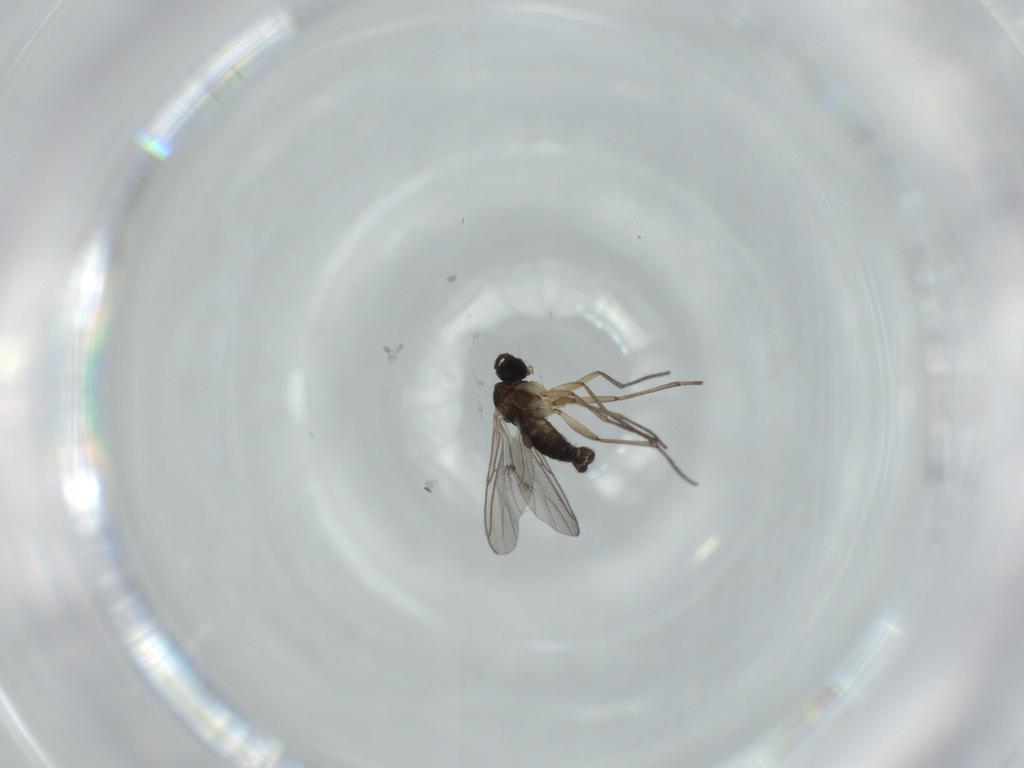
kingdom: Animalia
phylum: Arthropoda
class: Insecta
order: Diptera
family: Sciaridae
